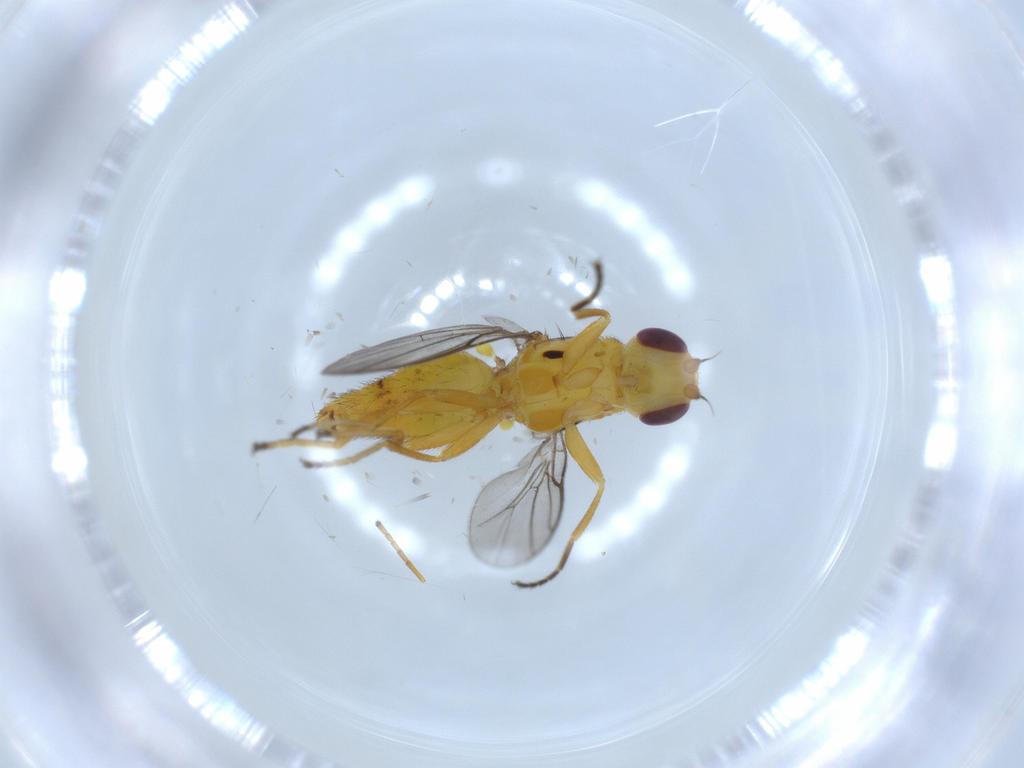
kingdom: Animalia
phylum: Arthropoda
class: Insecta
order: Diptera
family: Chloropidae
